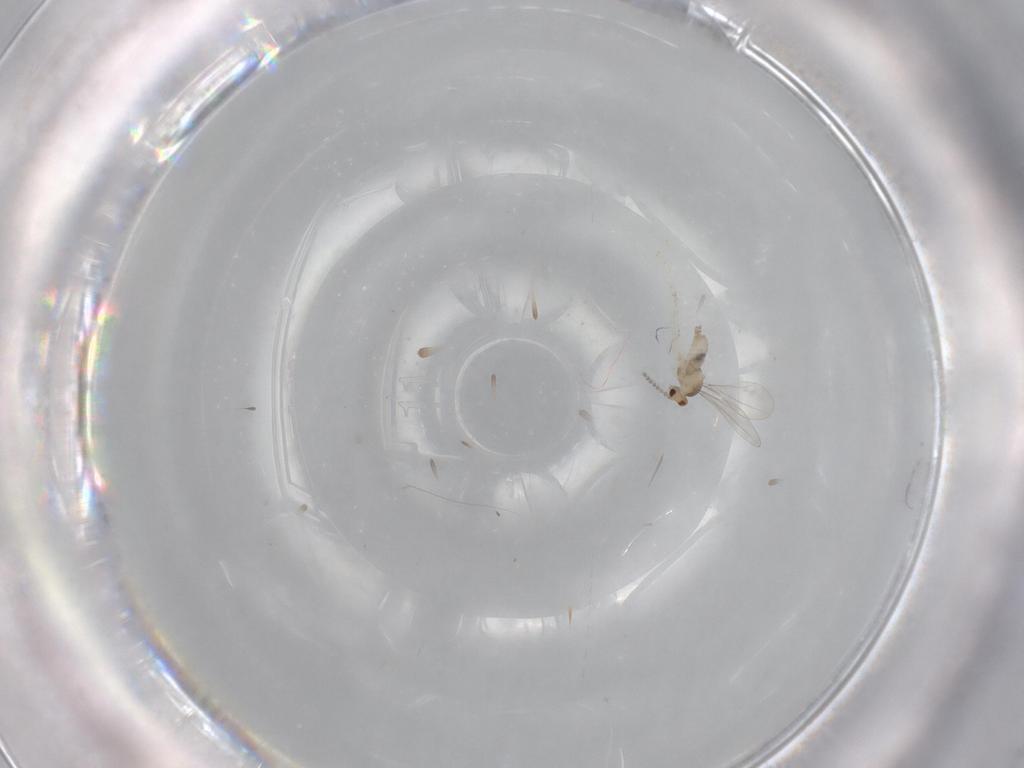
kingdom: Animalia
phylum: Arthropoda
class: Insecta
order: Diptera
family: Cecidomyiidae
